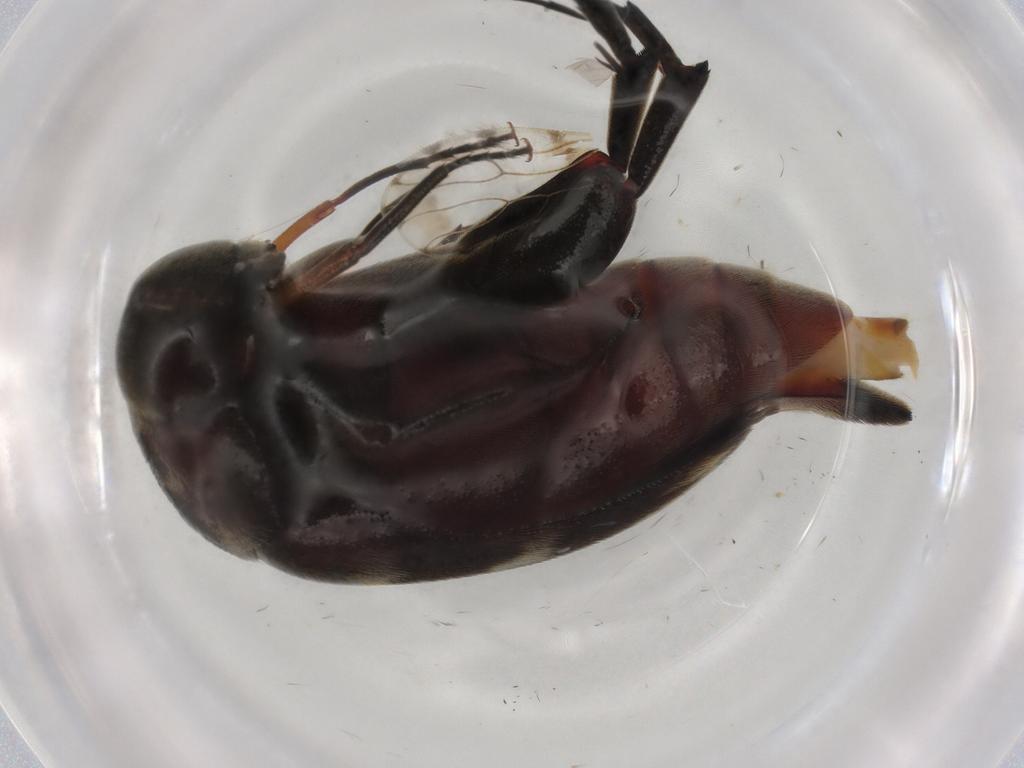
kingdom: Animalia
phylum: Arthropoda
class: Insecta
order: Coleoptera
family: Mordellidae
